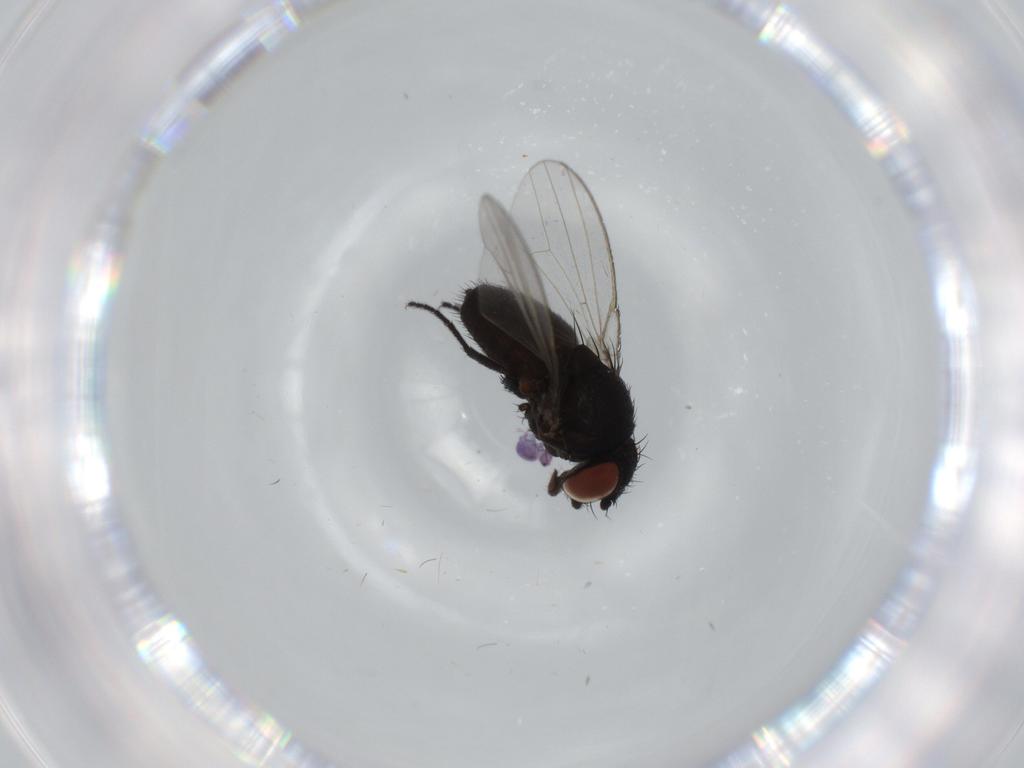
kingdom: Animalia
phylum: Arthropoda
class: Insecta
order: Diptera
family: Milichiidae
